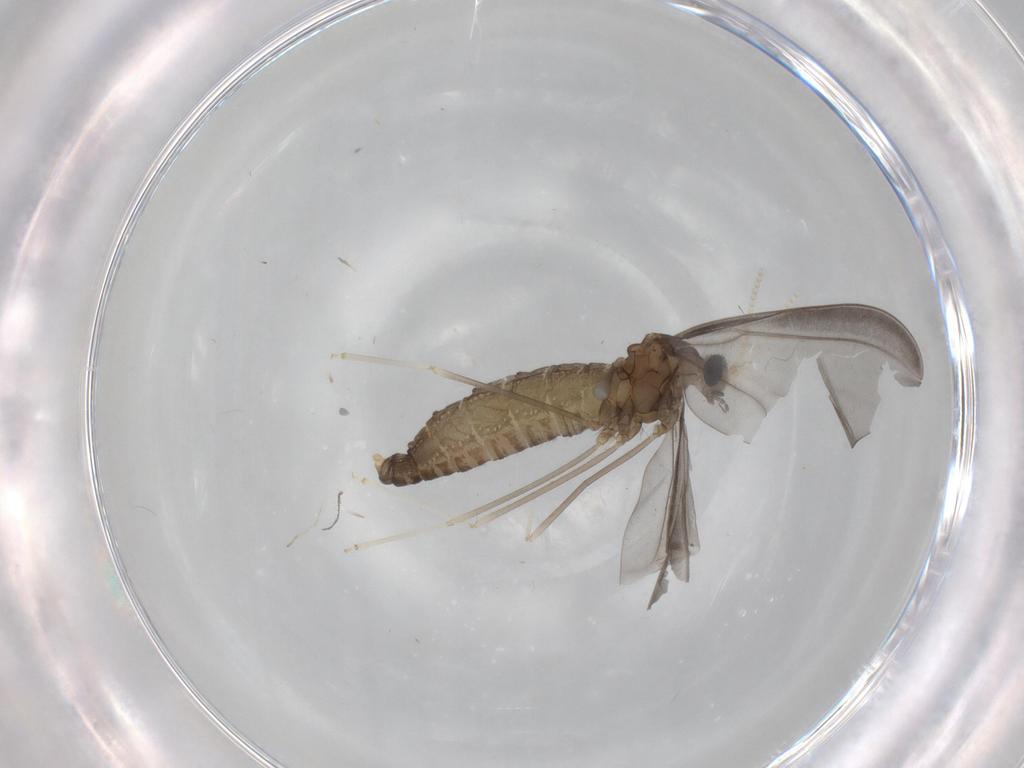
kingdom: Animalia
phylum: Arthropoda
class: Insecta
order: Diptera
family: Cecidomyiidae
